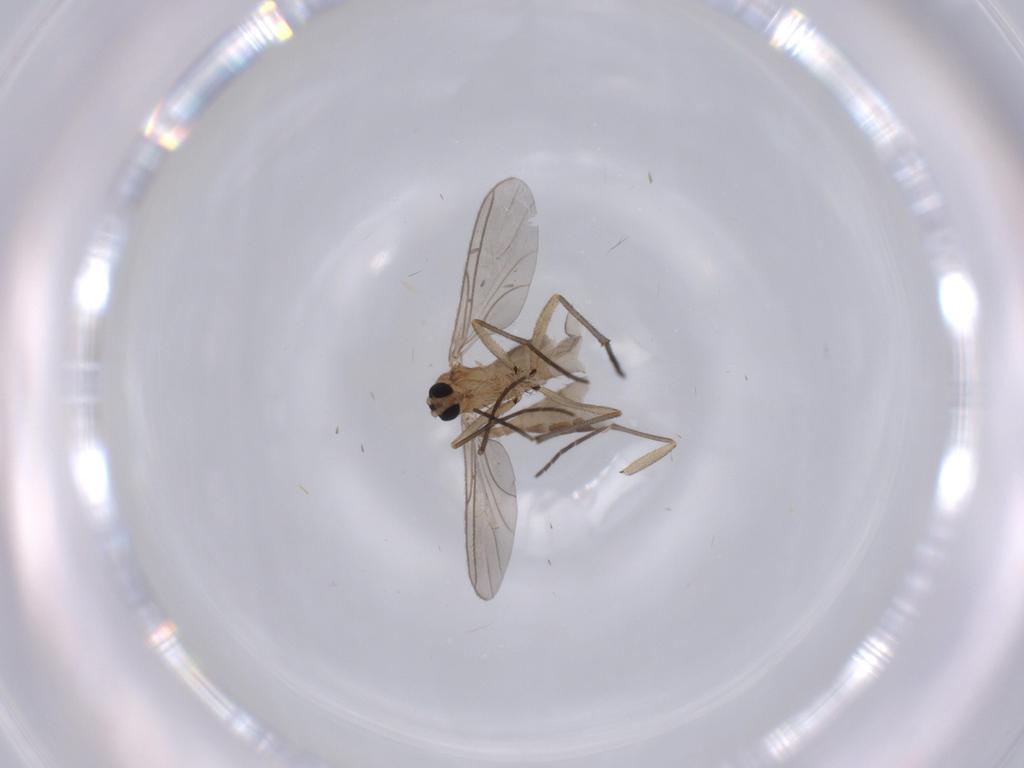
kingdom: Animalia
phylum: Arthropoda
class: Insecta
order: Diptera
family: Sciaridae
